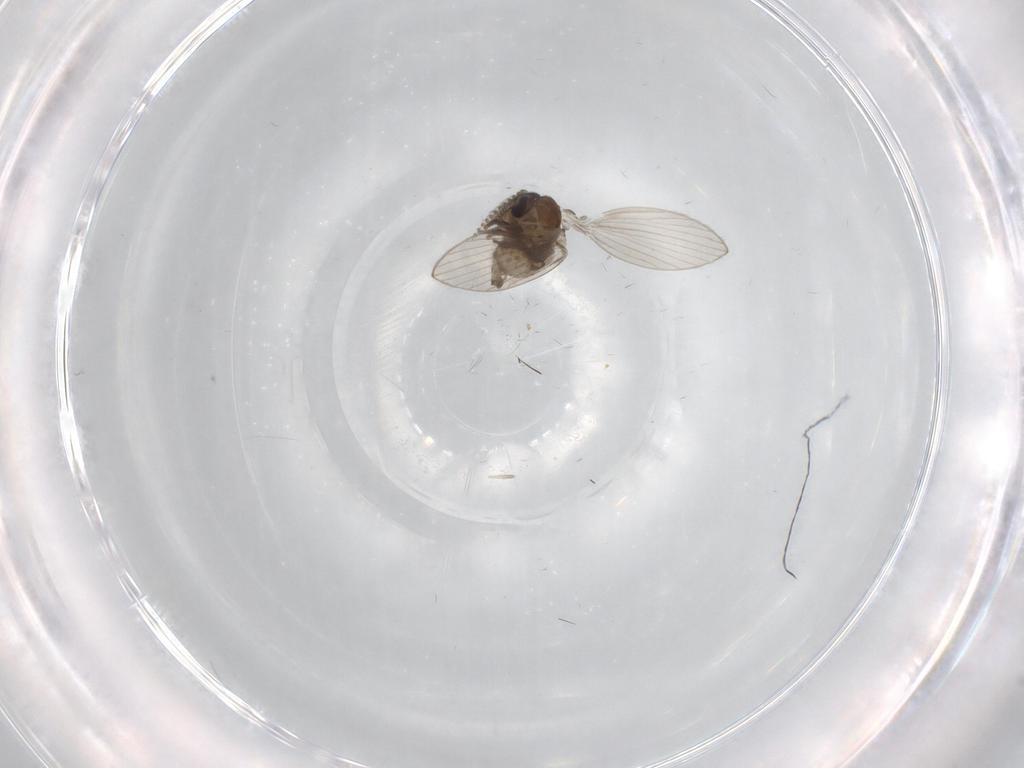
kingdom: Animalia
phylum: Arthropoda
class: Insecta
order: Diptera
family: Psychodidae
